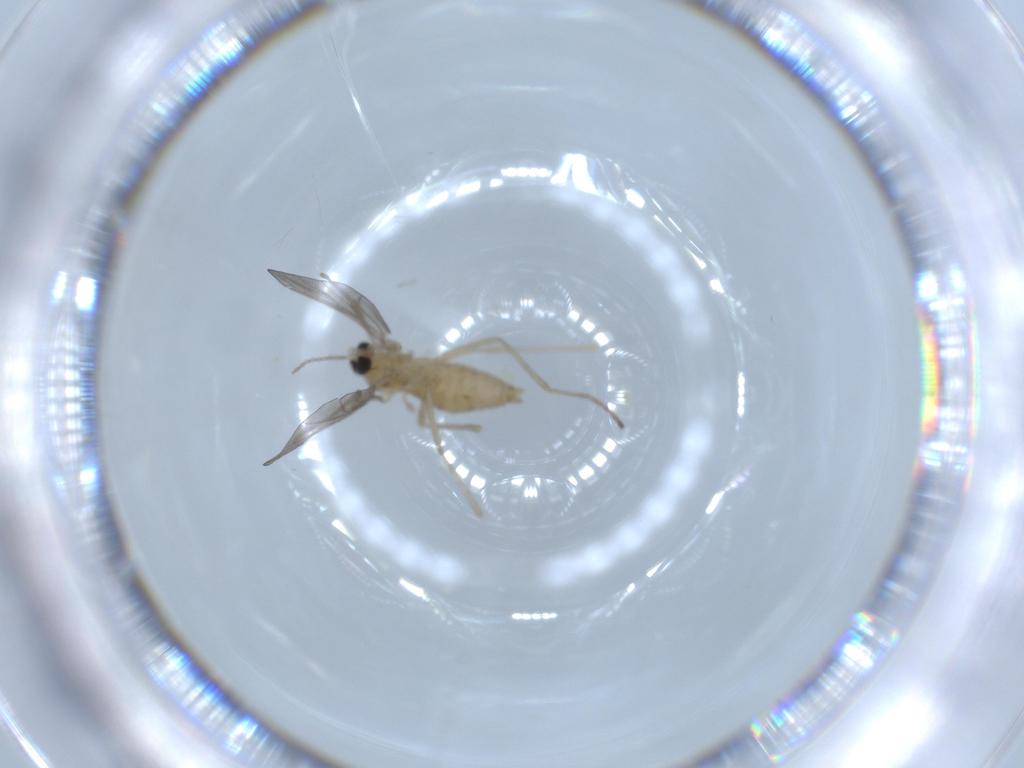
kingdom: Animalia
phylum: Arthropoda
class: Insecta
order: Diptera
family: Cecidomyiidae
